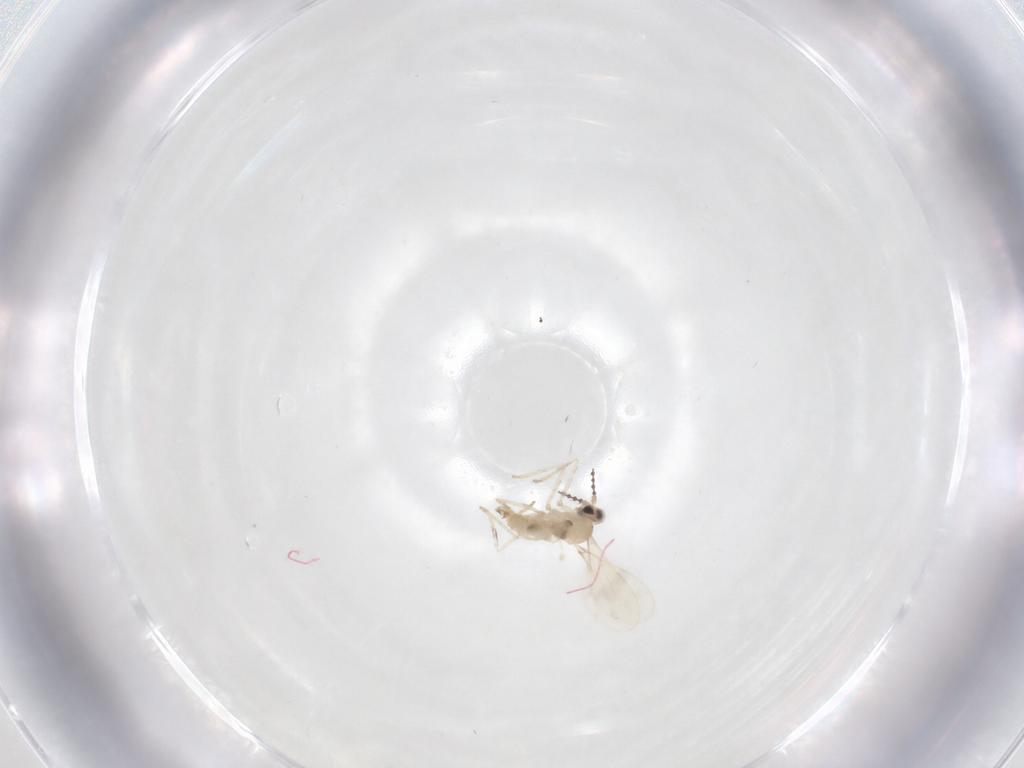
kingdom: Animalia
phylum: Arthropoda
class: Insecta
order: Diptera
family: Cecidomyiidae
